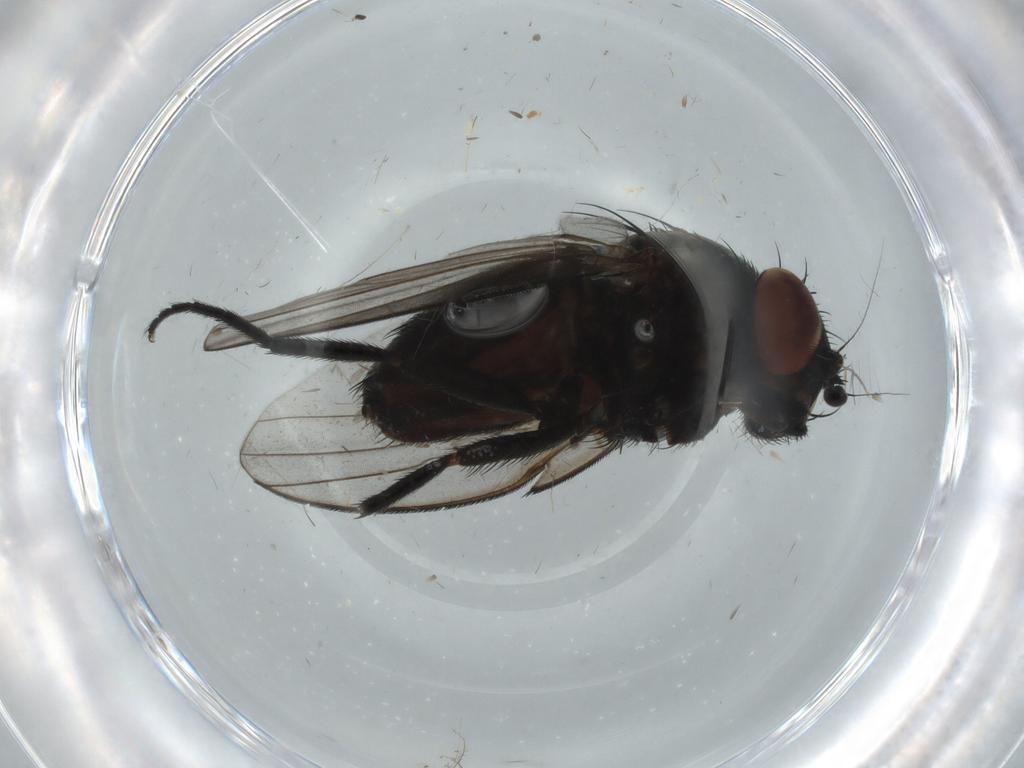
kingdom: Animalia
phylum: Arthropoda
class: Insecta
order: Diptera
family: Milichiidae
